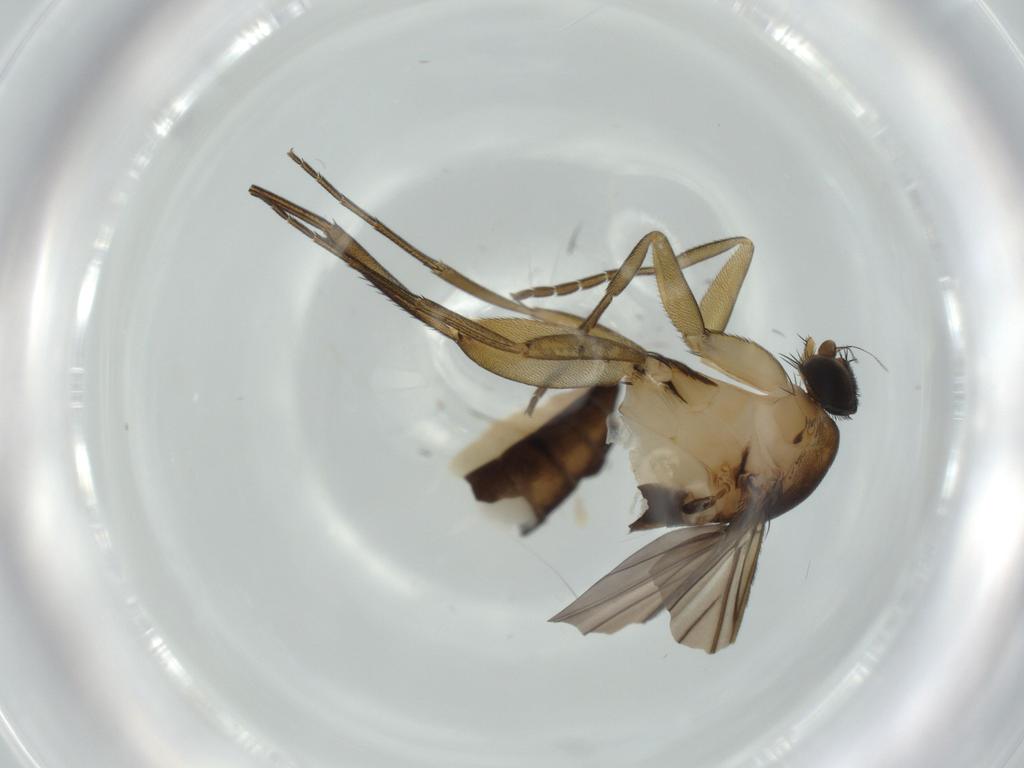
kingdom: Animalia
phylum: Arthropoda
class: Insecta
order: Diptera
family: Phoridae
